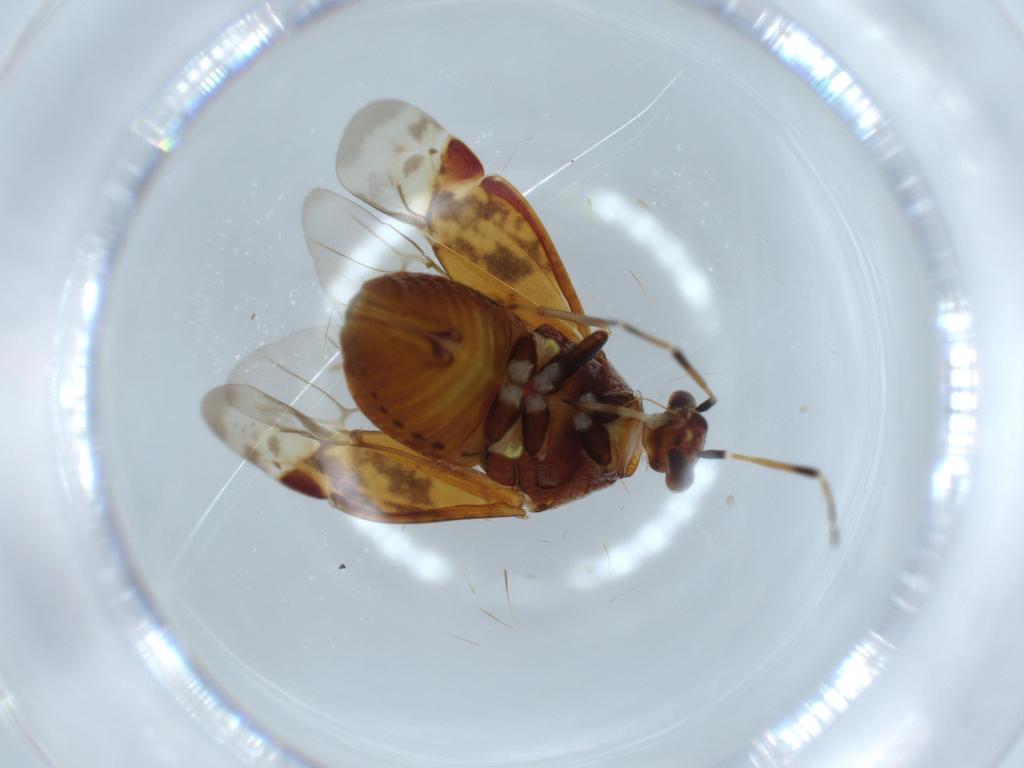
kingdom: Animalia
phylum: Arthropoda
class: Insecta
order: Hemiptera
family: Miridae
